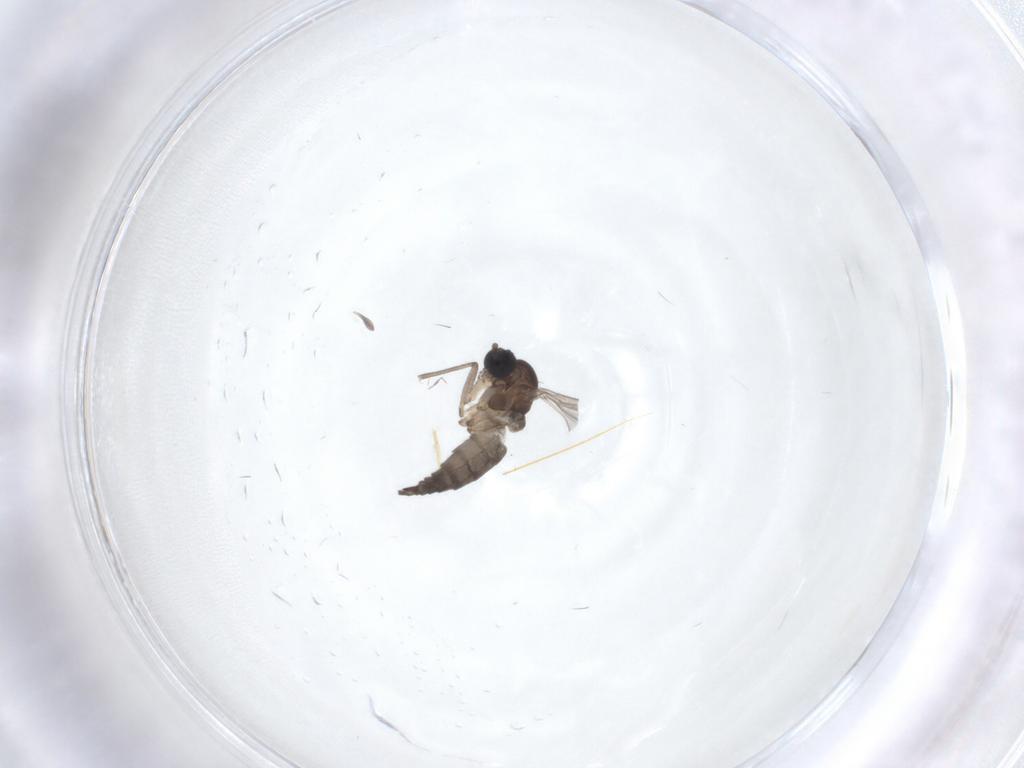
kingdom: Animalia
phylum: Arthropoda
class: Insecta
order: Diptera
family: Sciaridae
